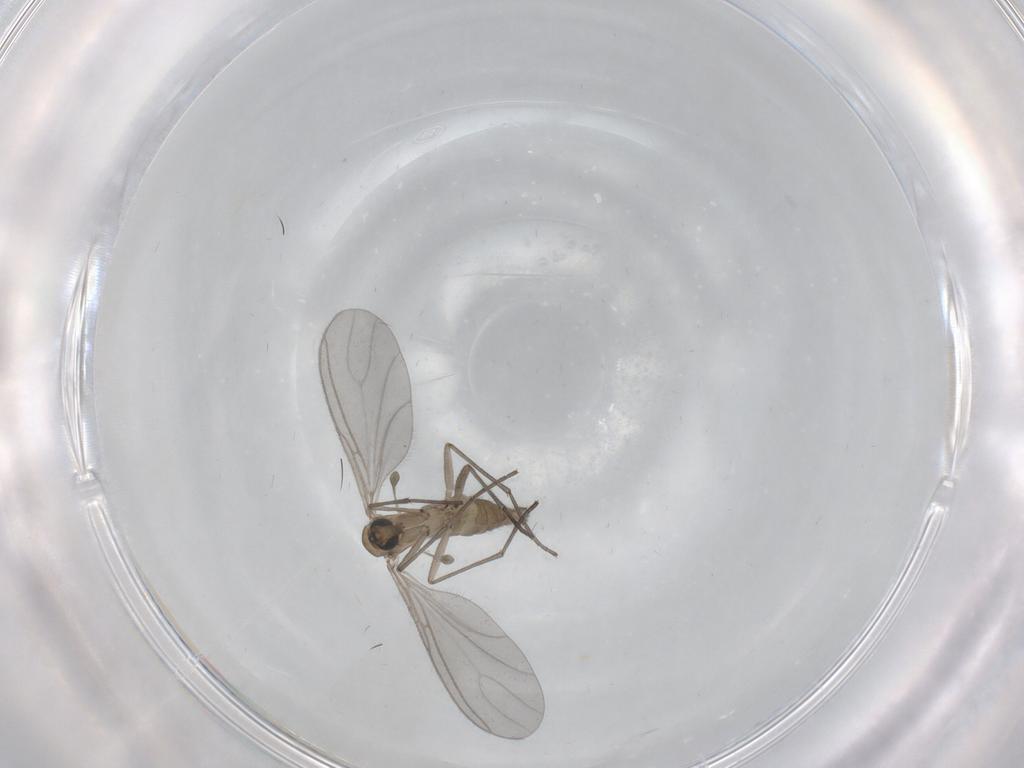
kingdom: Animalia
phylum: Arthropoda
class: Insecta
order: Diptera
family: Sciaridae
